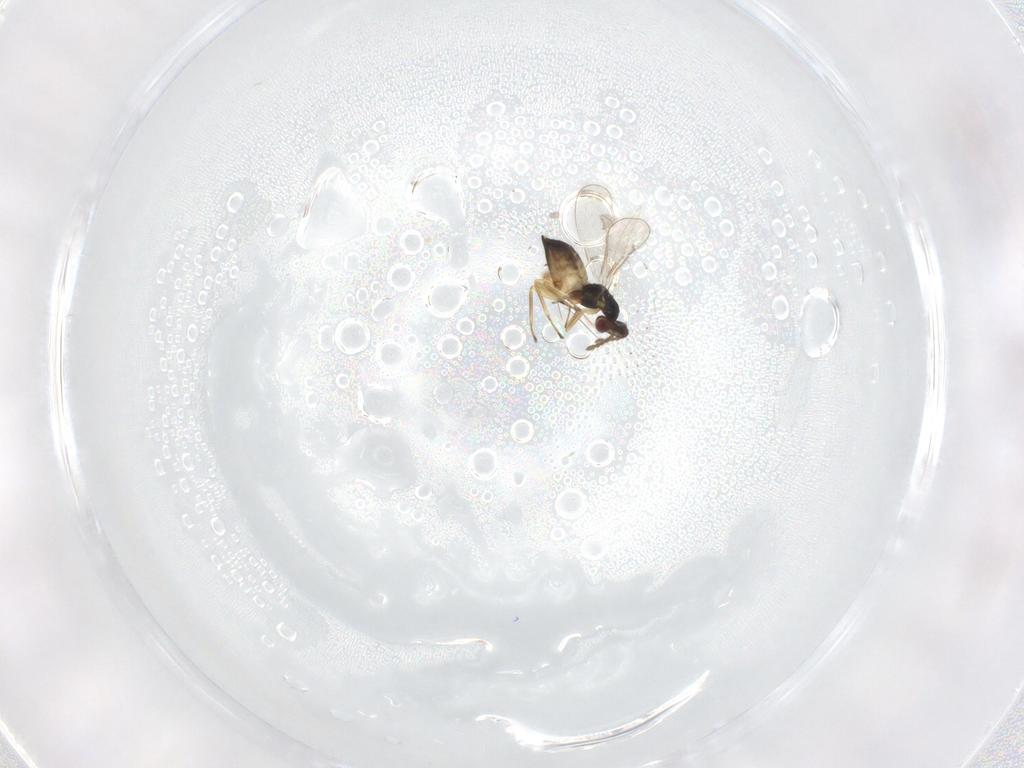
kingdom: Animalia
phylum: Arthropoda
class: Insecta
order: Hymenoptera
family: Eulophidae
